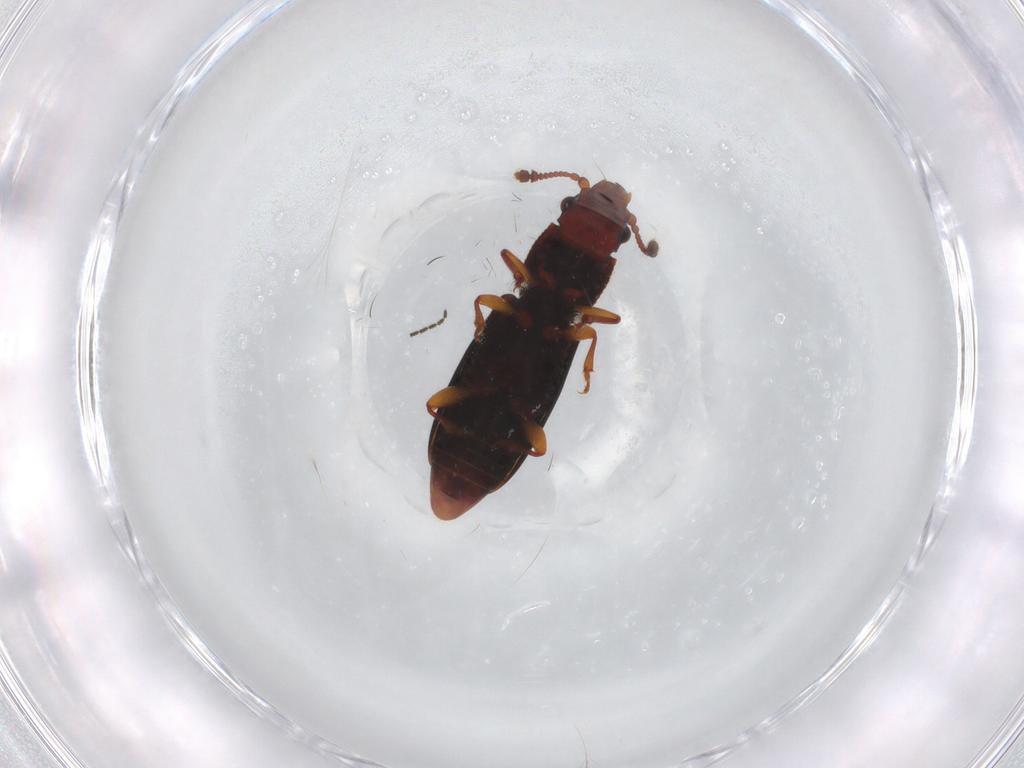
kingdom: Animalia
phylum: Arthropoda
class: Insecta
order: Coleoptera
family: Monotomidae
